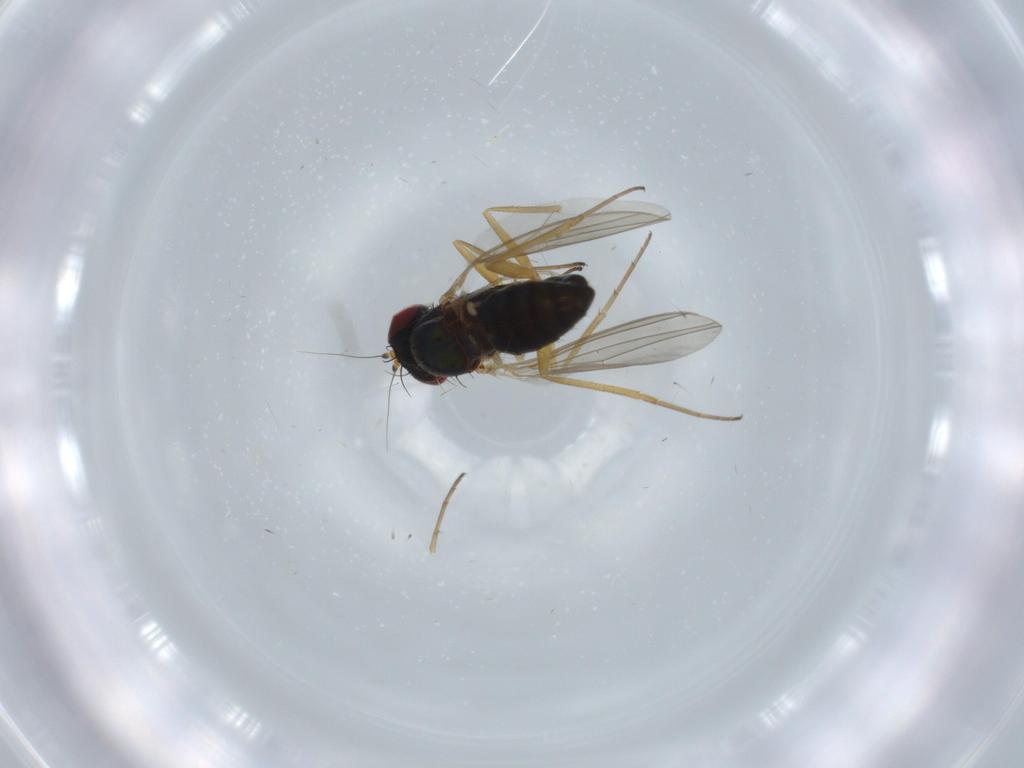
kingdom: Animalia
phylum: Arthropoda
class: Insecta
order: Diptera
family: Dolichopodidae
